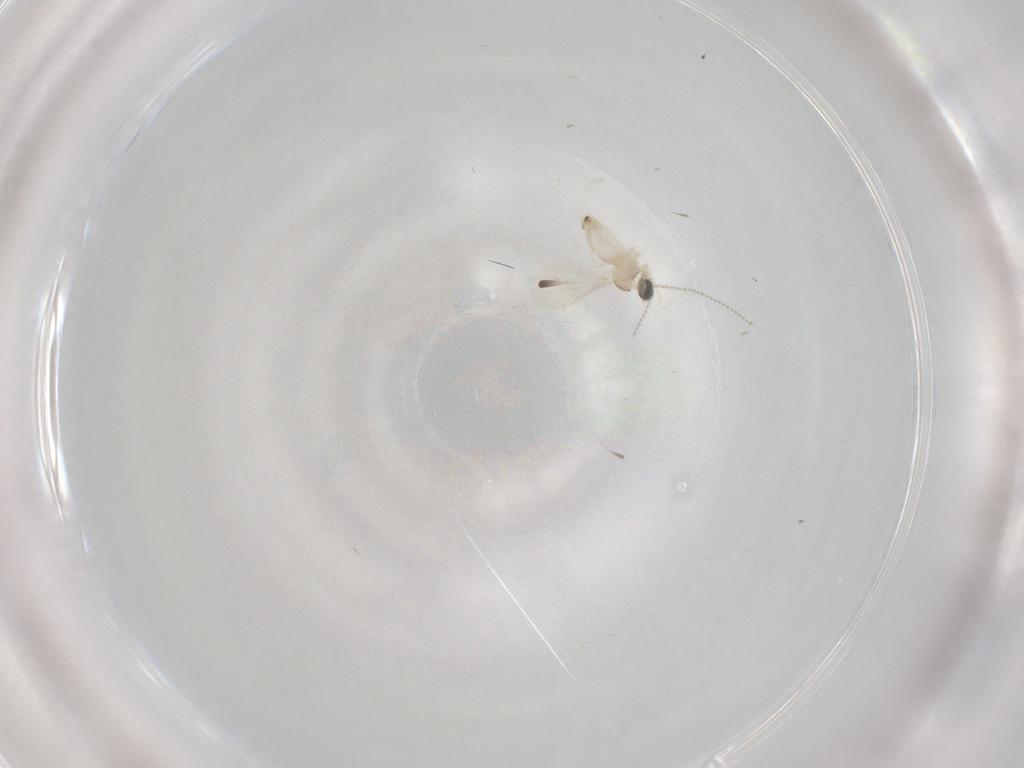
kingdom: Animalia
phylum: Arthropoda
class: Insecta
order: Diptera
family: Cecidomyiidae
